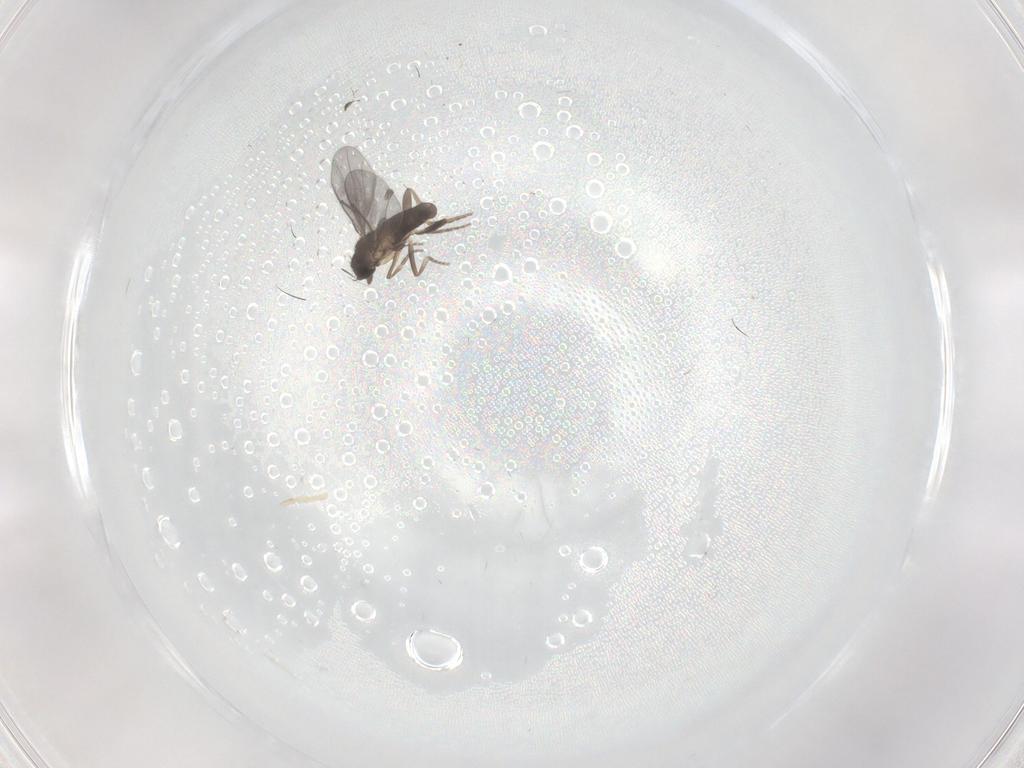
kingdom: Animalia
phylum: Arthropoda
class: Insecta
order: Diptera
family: Phoridae
